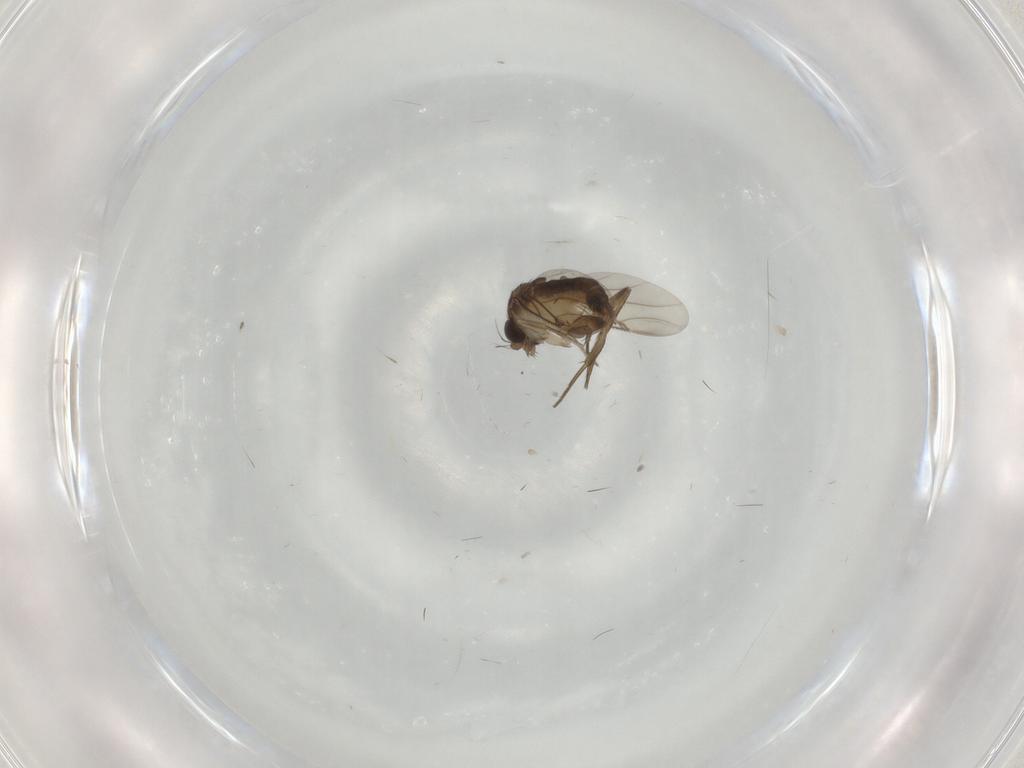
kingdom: Animalia
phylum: Arthropoda
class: Insecta
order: Diptera
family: Phoridae
